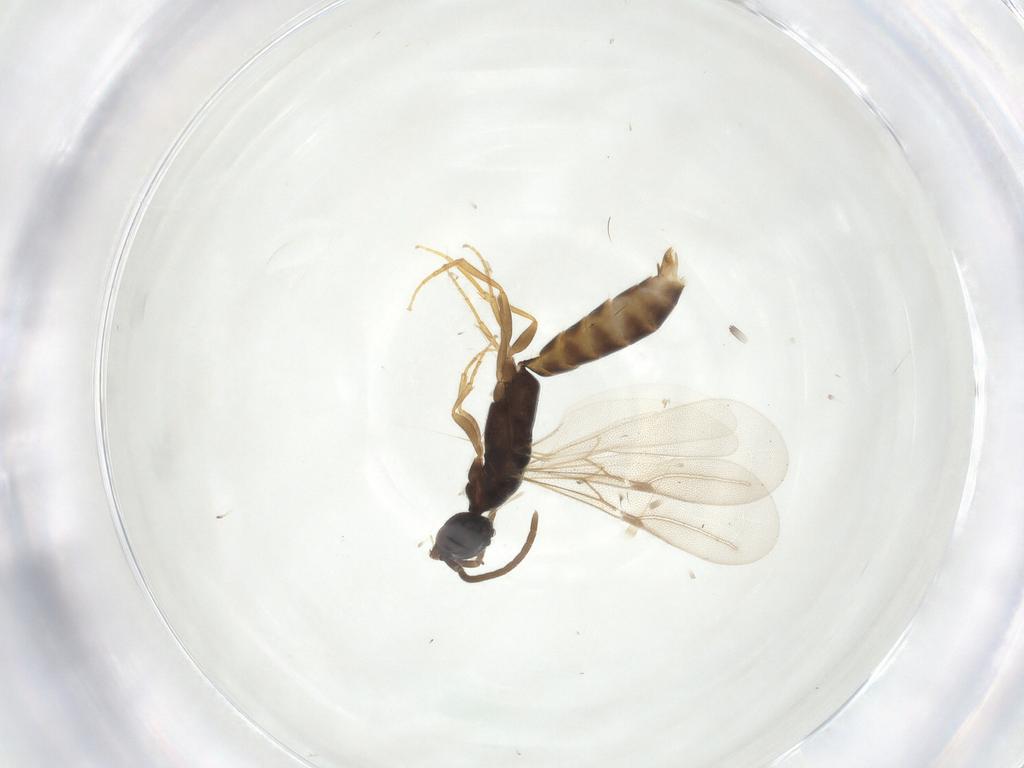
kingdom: Animalia
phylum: Arthropoda
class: Insecta
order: Hymenoptera
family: Bethylidae
